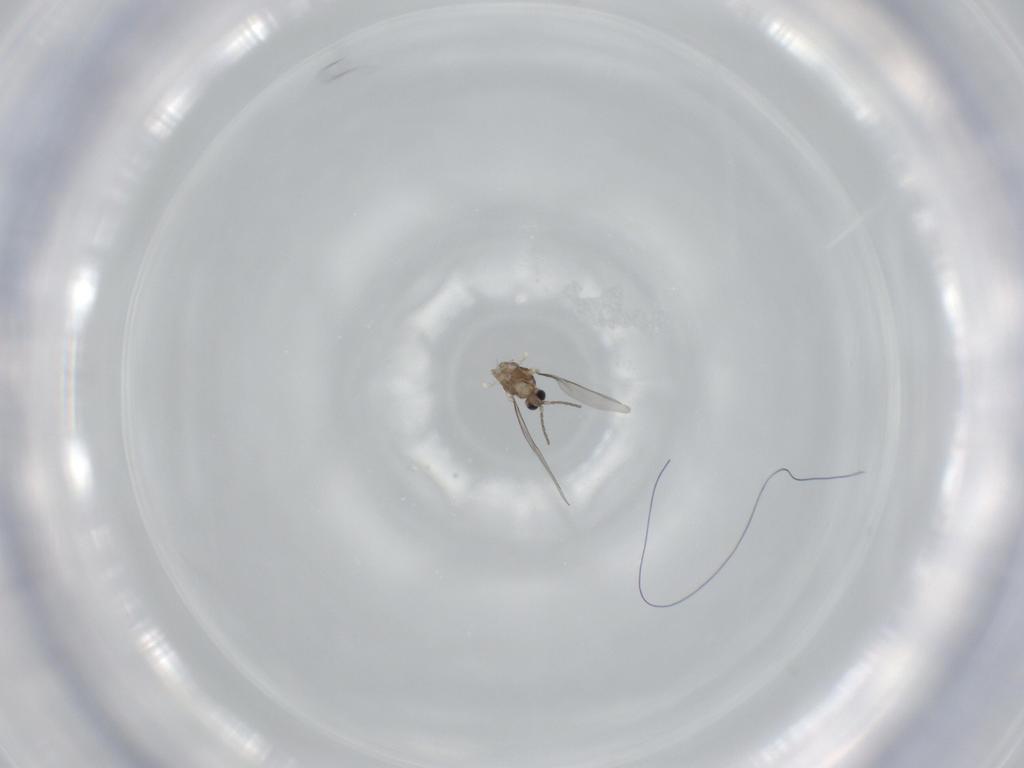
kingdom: Animalia
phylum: Arthropoda
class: Insecta
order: Diptera
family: Cecidomyiidae
